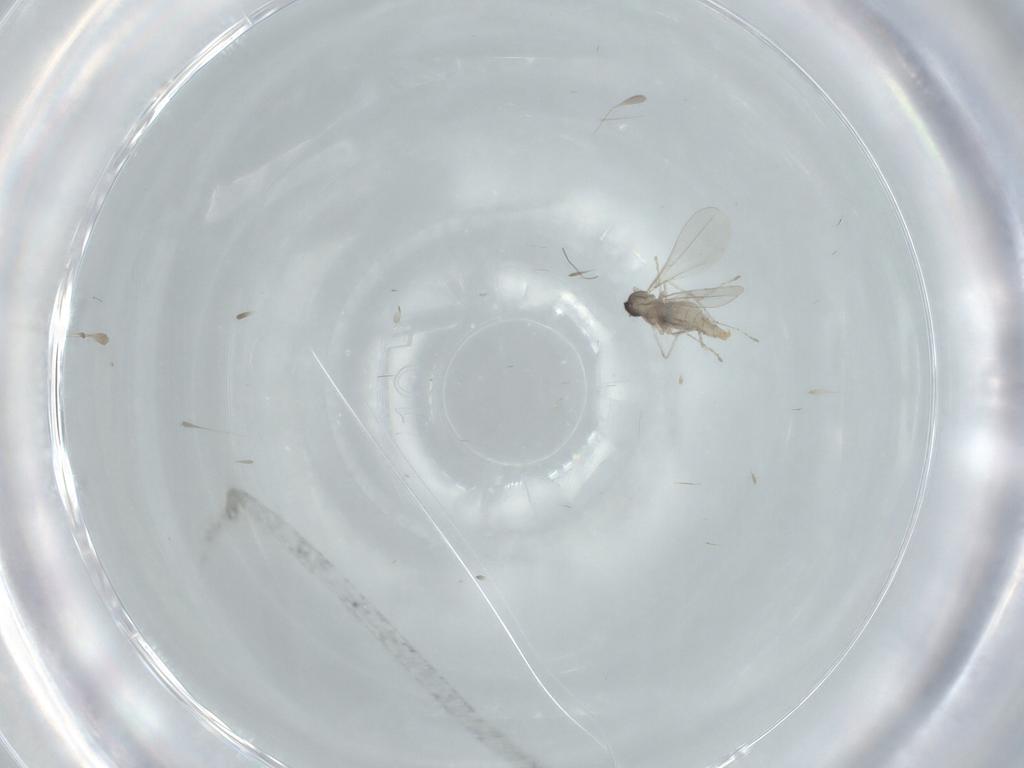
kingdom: Animalia
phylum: Arthropoda
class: Insecta
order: Diptera
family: Cecidomyiidae
